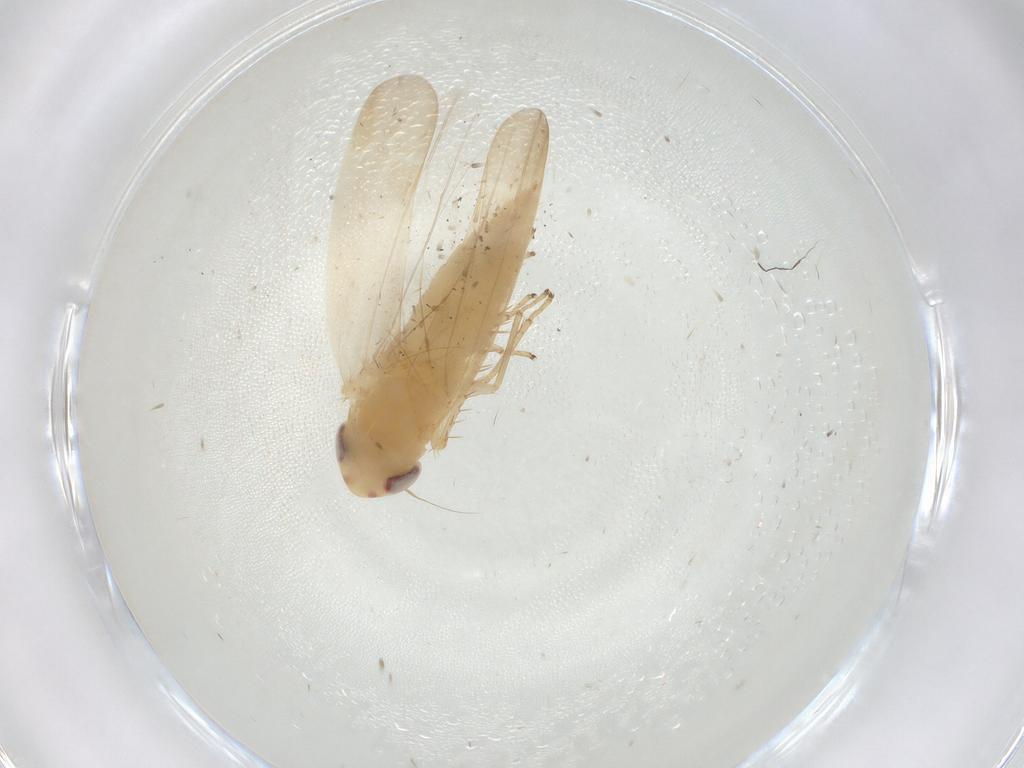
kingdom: Animalia
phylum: Arthropoda
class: Insecta
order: Hemiptera
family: Cicadellidae
